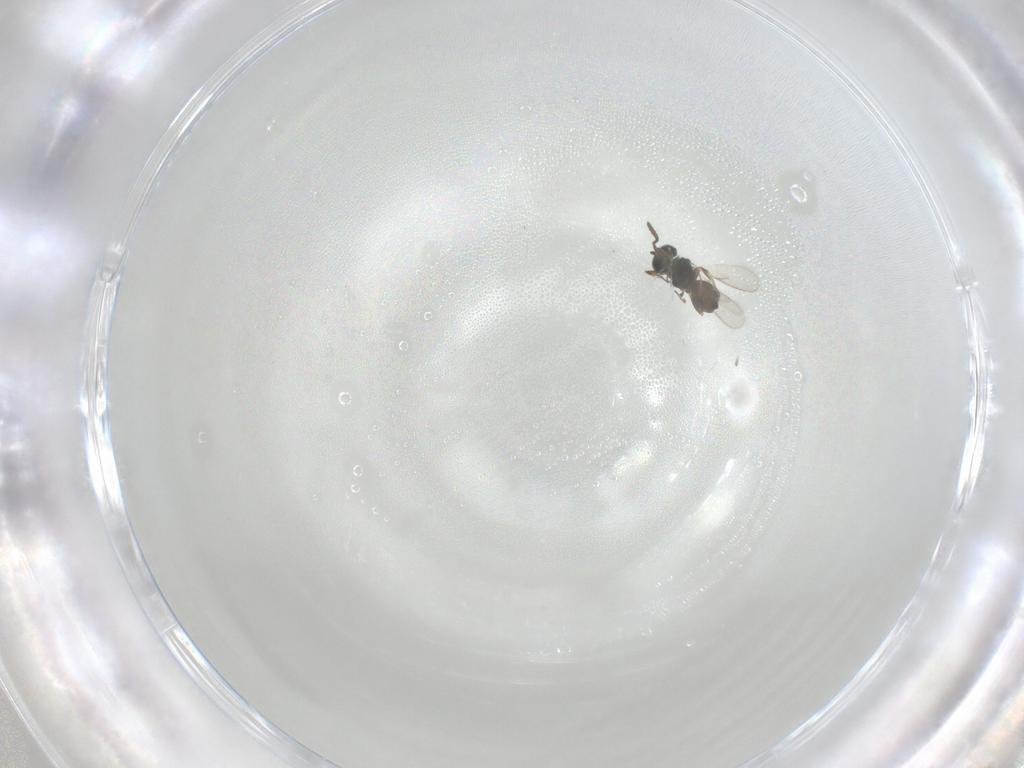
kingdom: Animalia
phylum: Arthropoda
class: Insecta
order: Hymenoptera
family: Scelionidae
